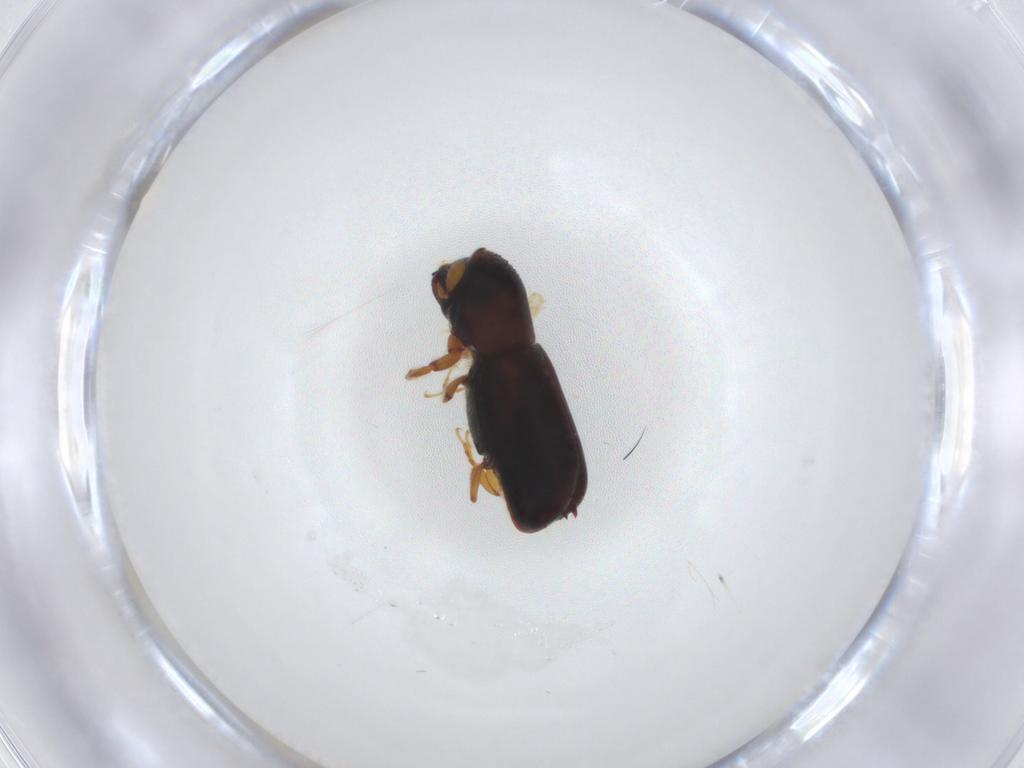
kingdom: Animalia
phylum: Arthropoda
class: Insecta
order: Coleoptera
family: Curculionidae
